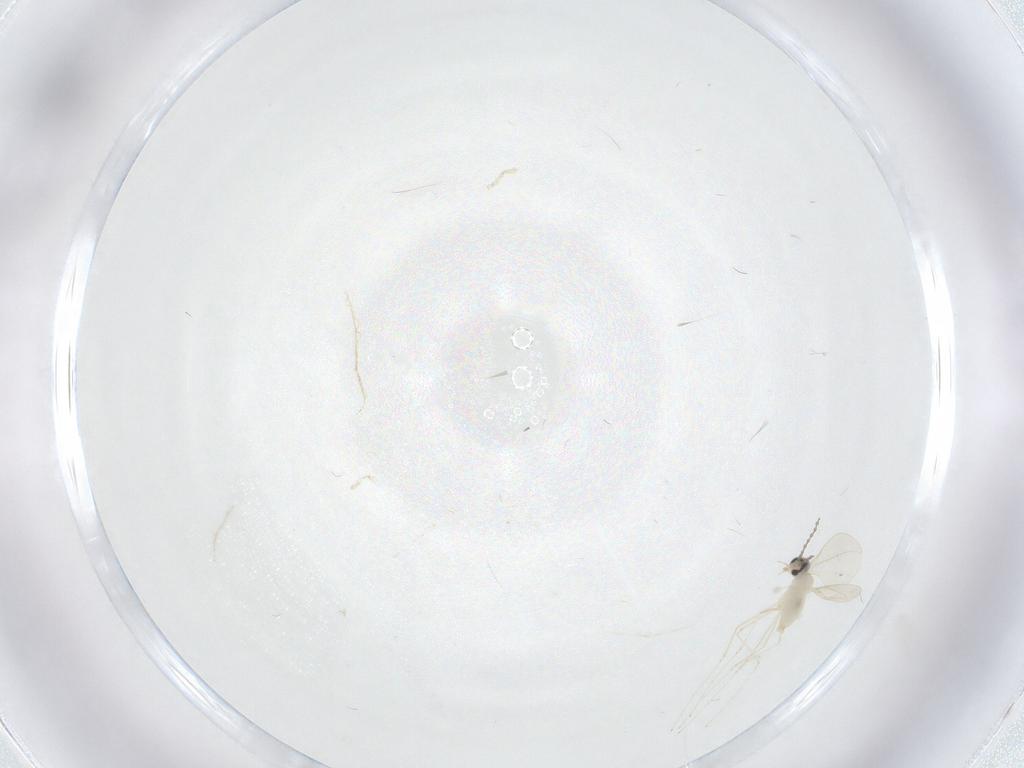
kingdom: Animalia
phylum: Arthropoda
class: Insecta
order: Diptera
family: Cecidomyiidae
